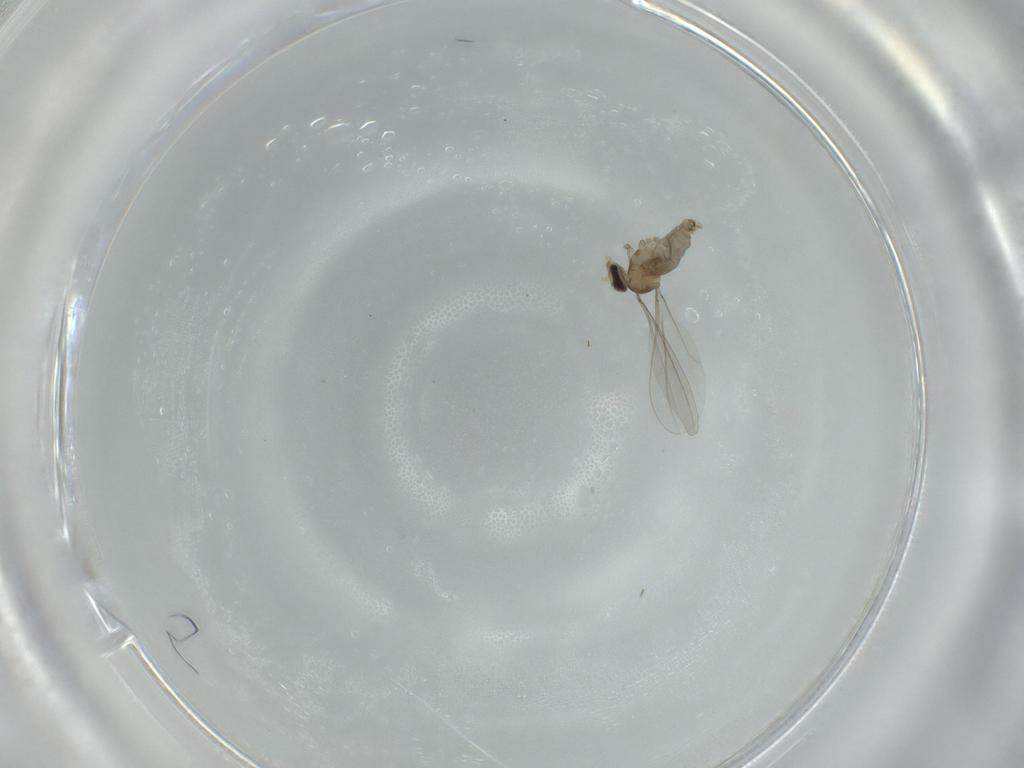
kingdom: Animalia
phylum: Arthropoda
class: Insecta
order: Diptera
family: Cecidomyiidae
